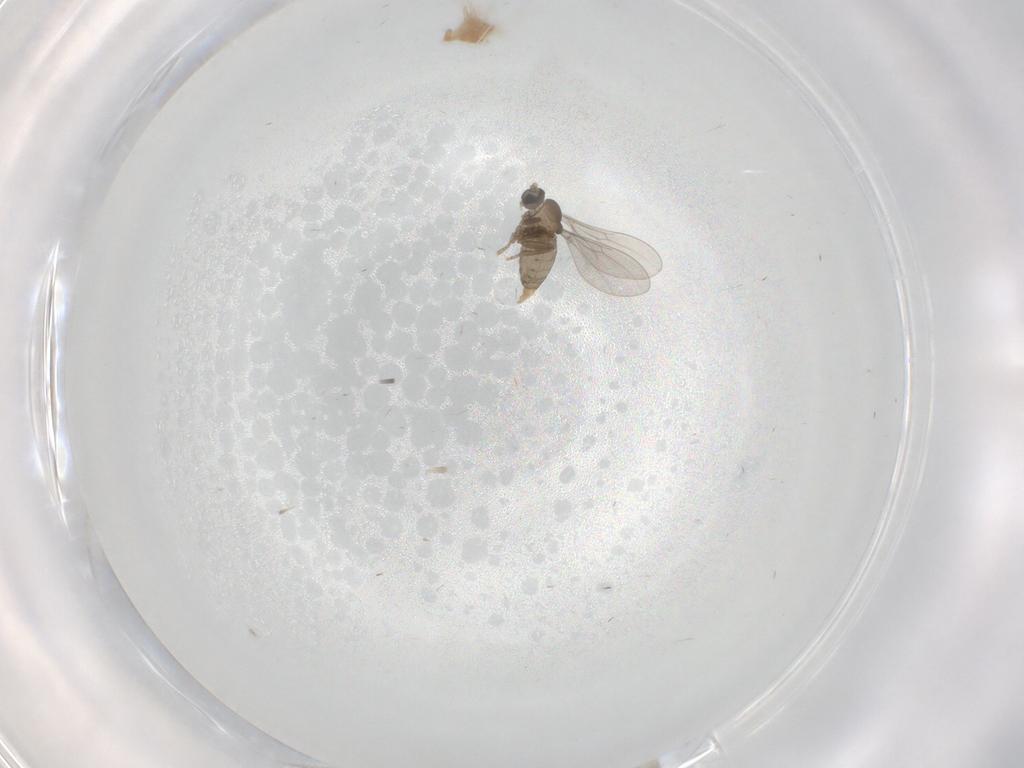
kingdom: Animalia
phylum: Arthropoda
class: Insecta
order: Diptera
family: Cecidomyiidae
